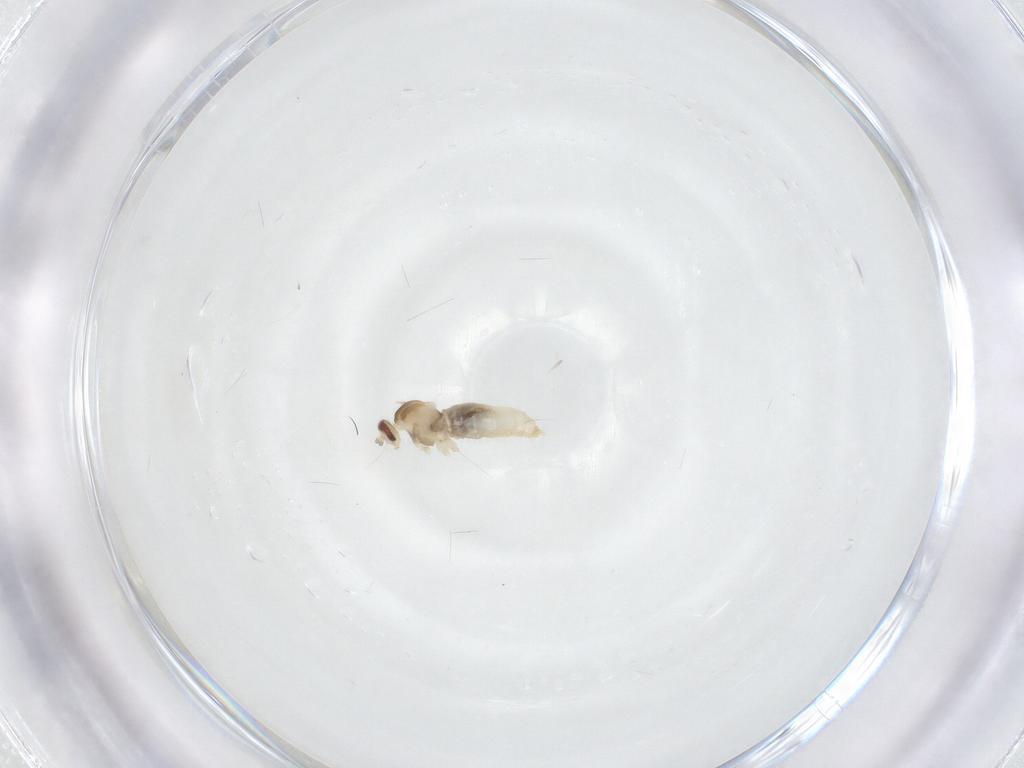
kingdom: Animalia
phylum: Arthropoda
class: Insecta
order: Diptera
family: Cecidomyiidae
